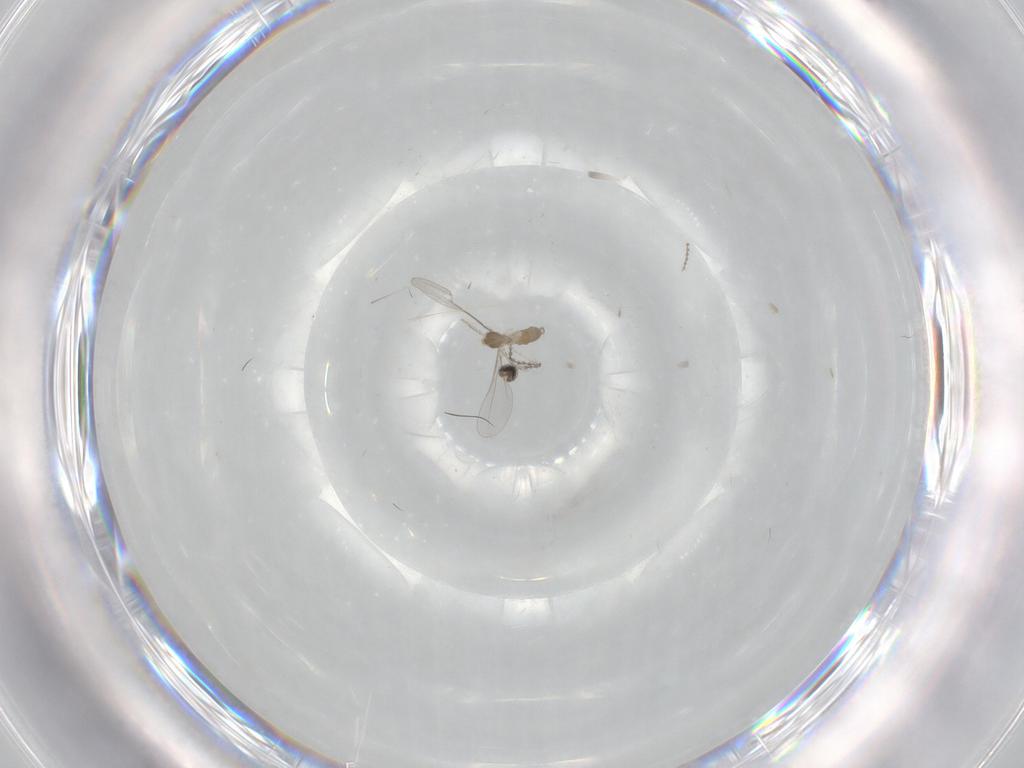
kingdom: Animalia
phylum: Arthropoda
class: Insecta
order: Diptera
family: Cecidomyiidae
